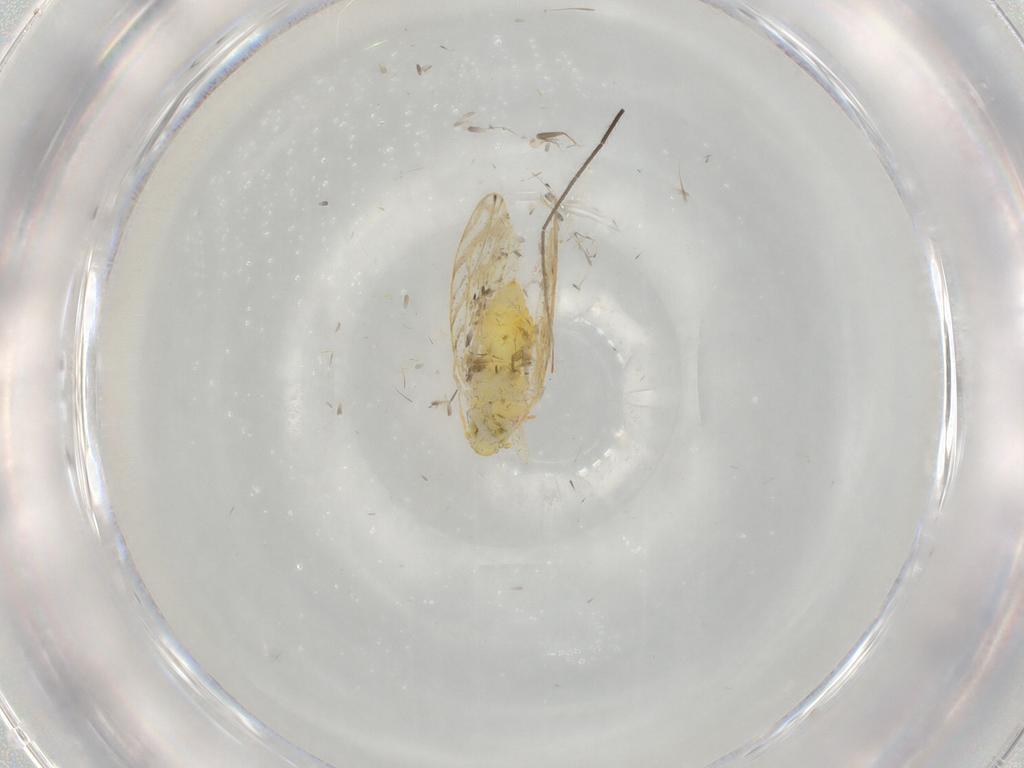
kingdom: Animalia
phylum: Arthropoda
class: Insecta
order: Hemiptera
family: Aleyrodidae
